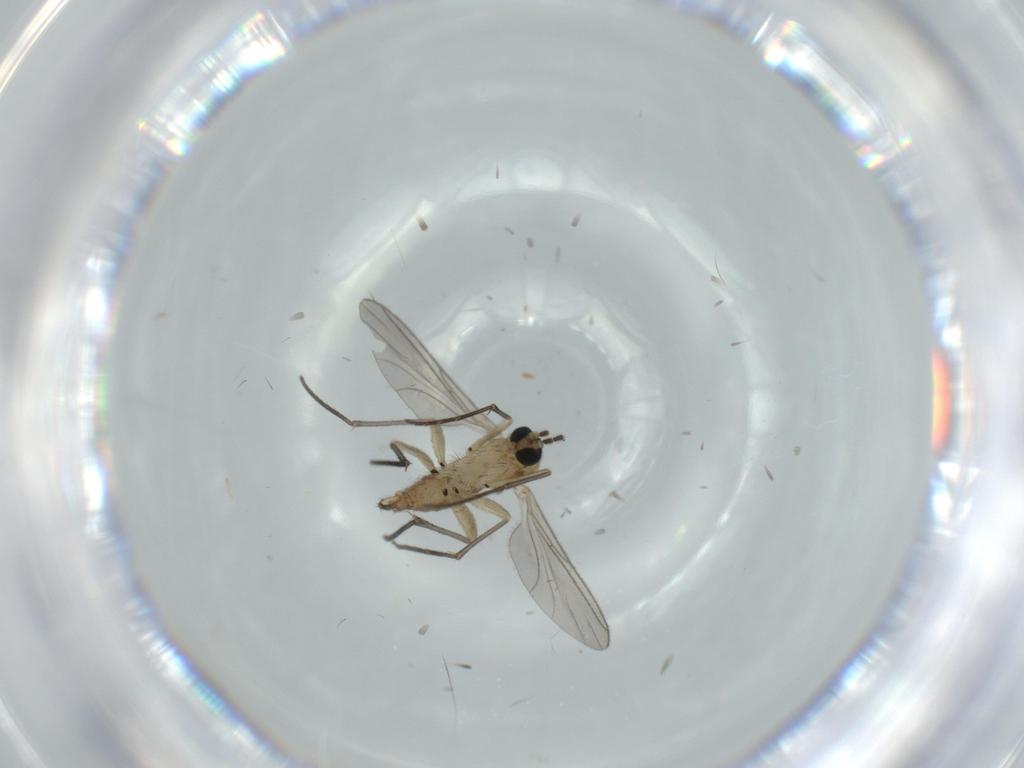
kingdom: Animalia
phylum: Arthropoda
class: Insecta
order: Diptera
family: Sciaridae
